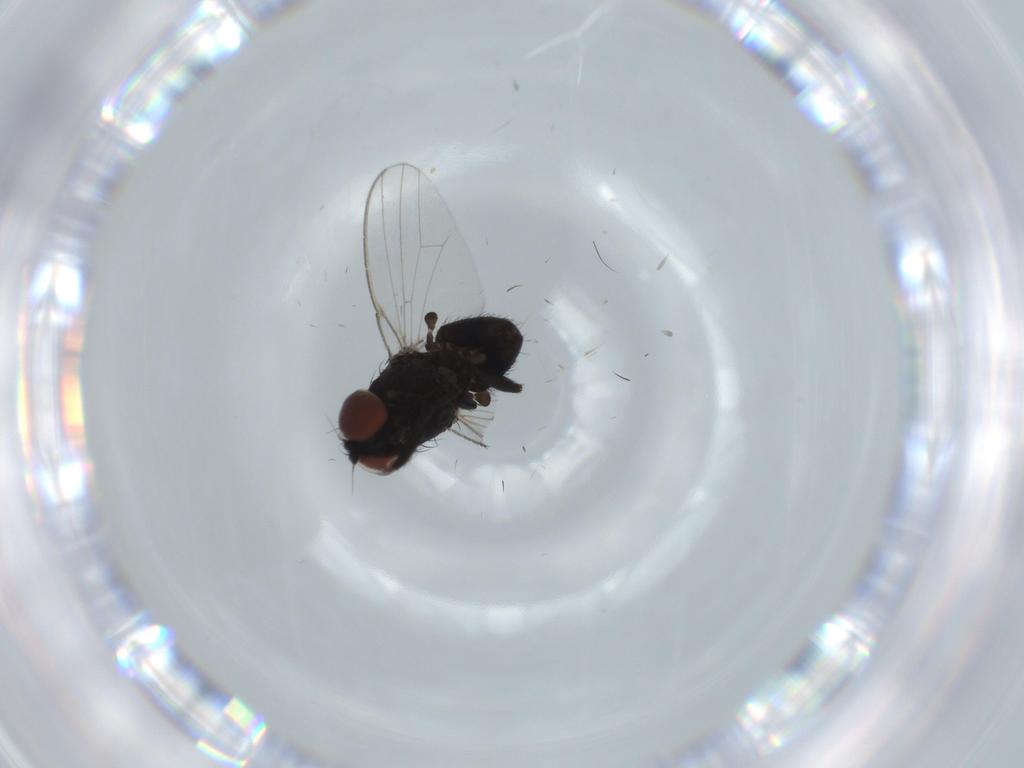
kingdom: Animalia
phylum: Arthropoda
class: Insecta
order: Diptera
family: Milichiidae
